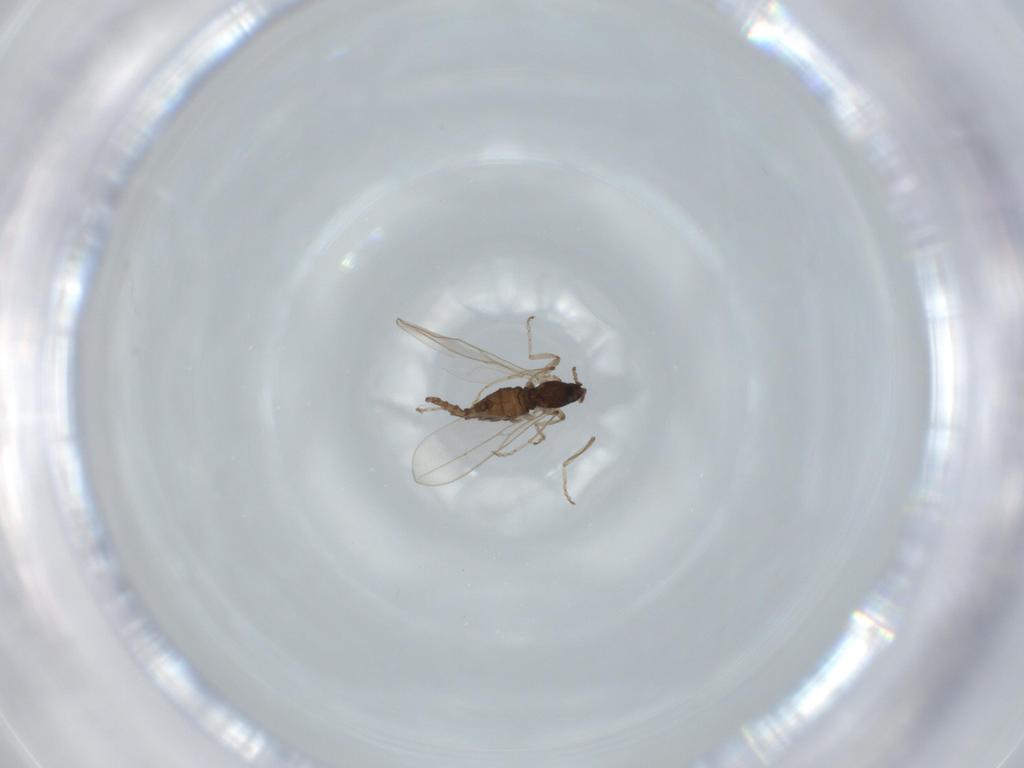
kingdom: Animalia
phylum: Arthropoda
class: Insecta
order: Diptera
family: Cecidomyiidae
